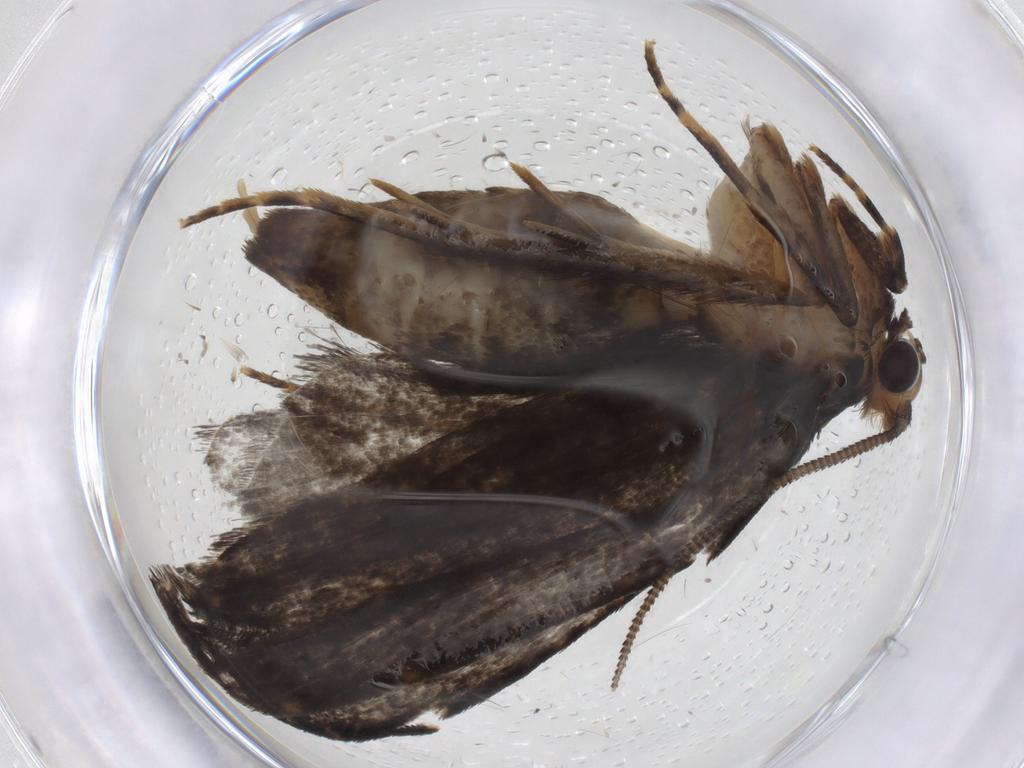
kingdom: Animalia
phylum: Arthropoda
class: Insecta
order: Lepidoptera
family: Tineidae
